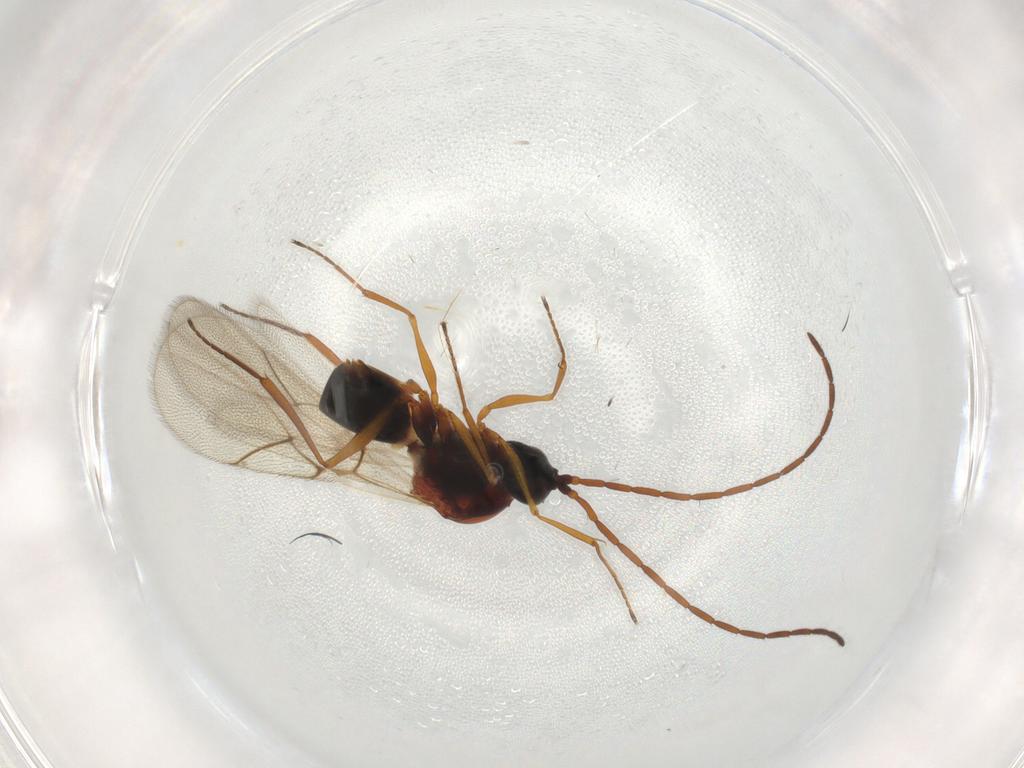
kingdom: Animalia
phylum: Arthropoda
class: Insecta
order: Hymenoptera
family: Figitidae
